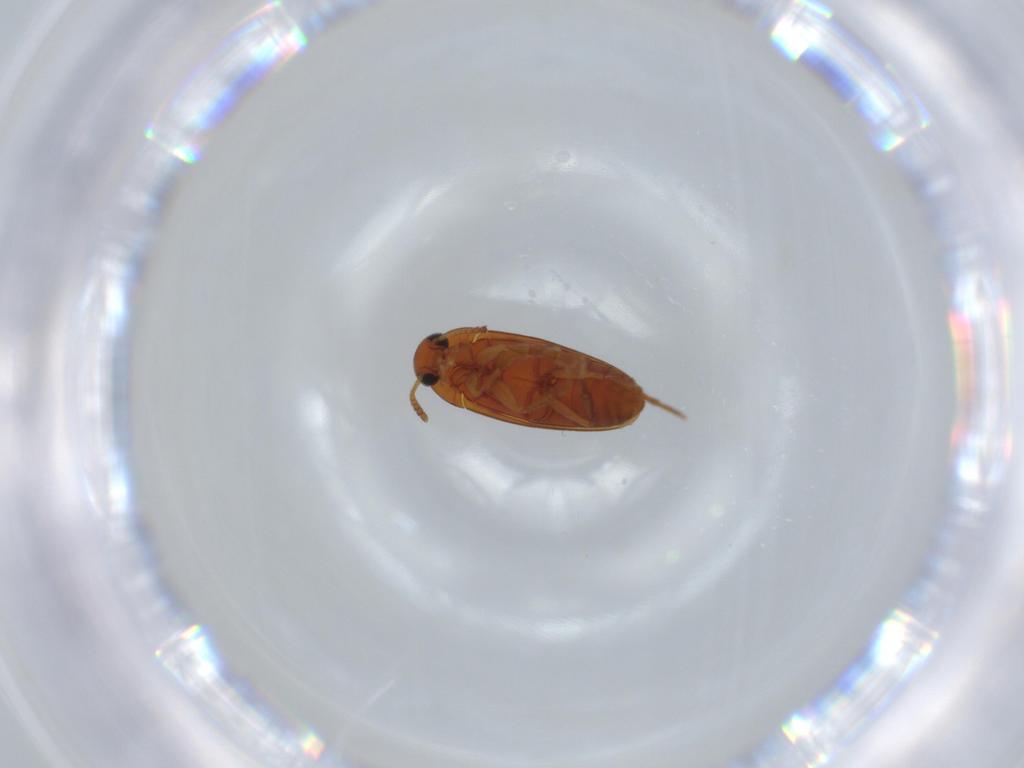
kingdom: Animalia
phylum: Arthropoda
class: Insecta
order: Coleoptera
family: Scraptiidae
